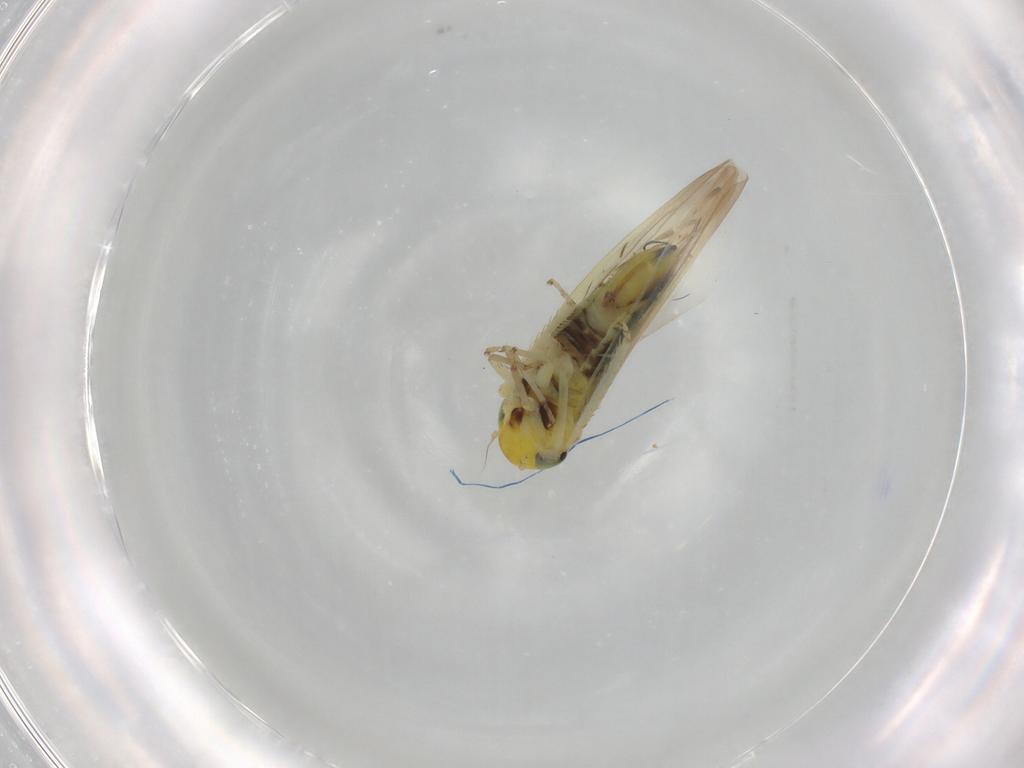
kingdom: Animalia
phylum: Arthropoda
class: Insecta
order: Hemiptera
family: Cicadellidae
